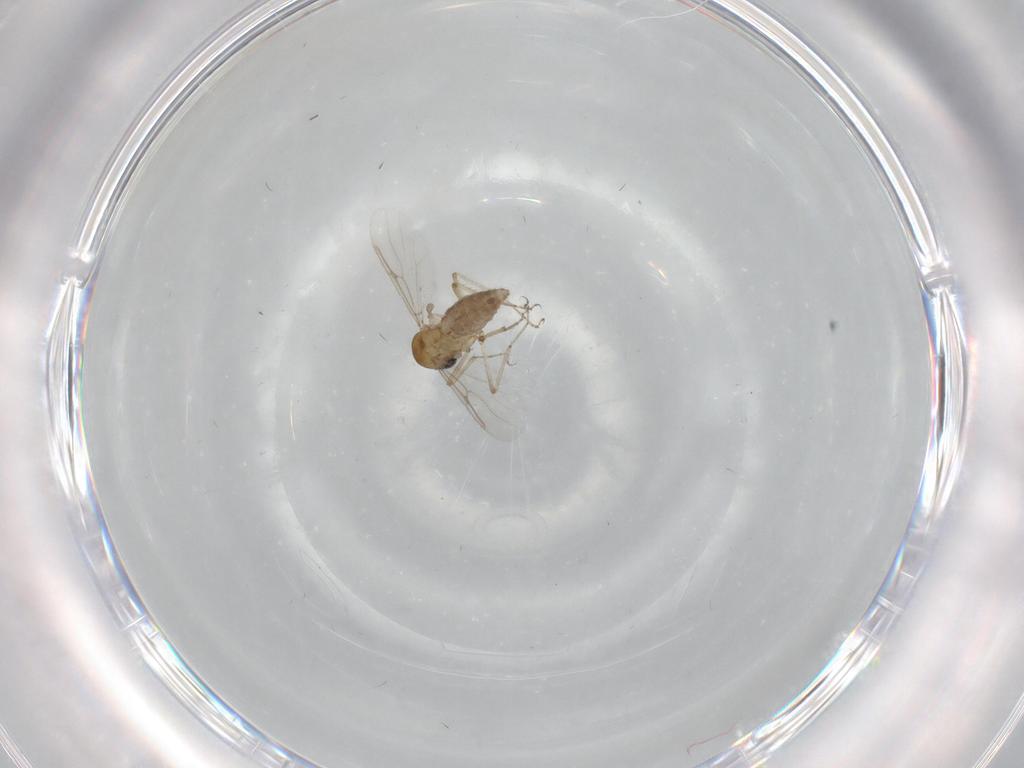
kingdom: Animalia
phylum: Arthropoda
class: Insecta
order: Diptera
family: Ceratopogonidae
